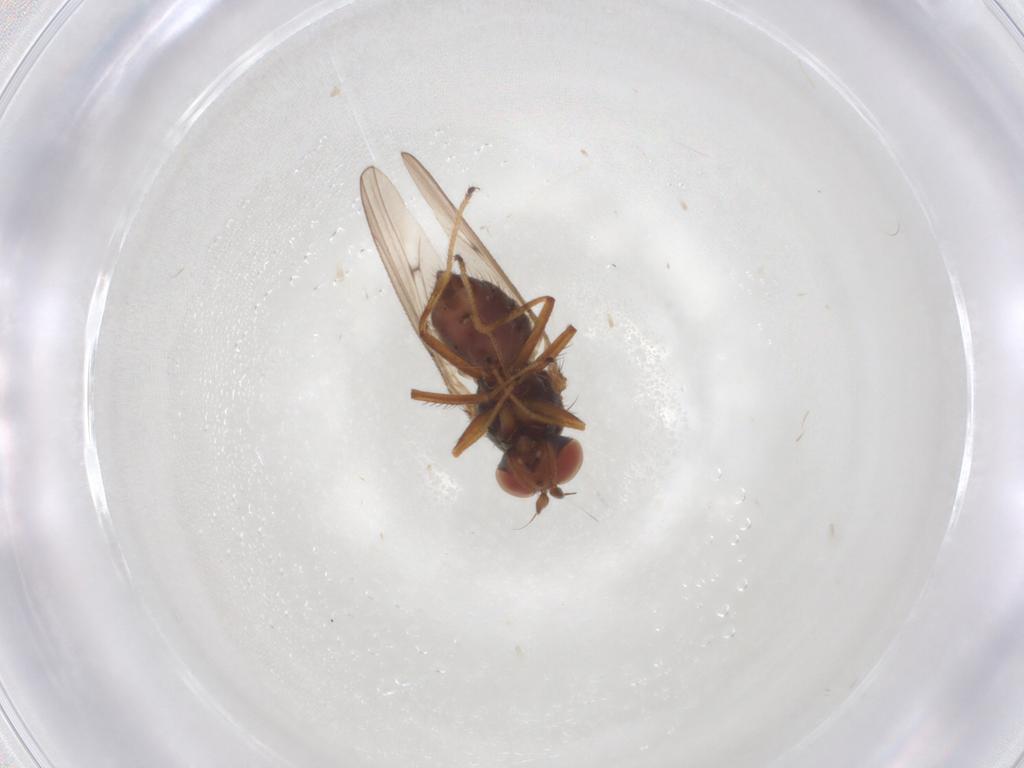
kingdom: Animalia
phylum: Arthropoda
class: Insecta
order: Diptera
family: Ephydridae
